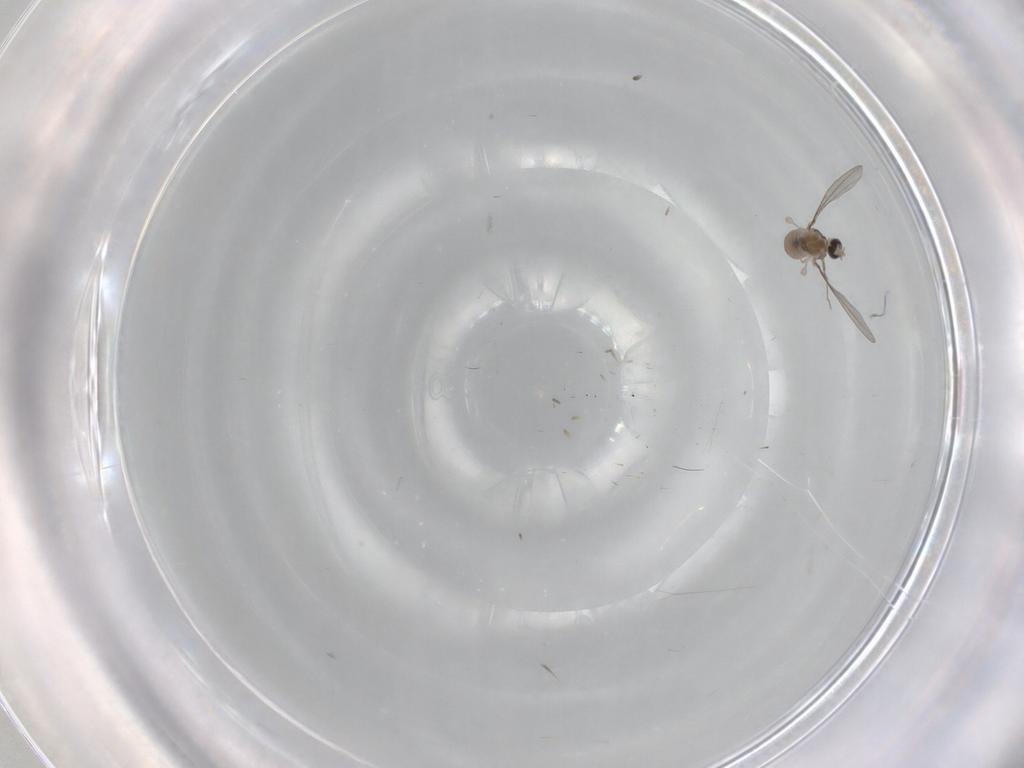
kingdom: Animalia
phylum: Arthropoda
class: Insecta
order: Diptera
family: Cecidomyiidae
